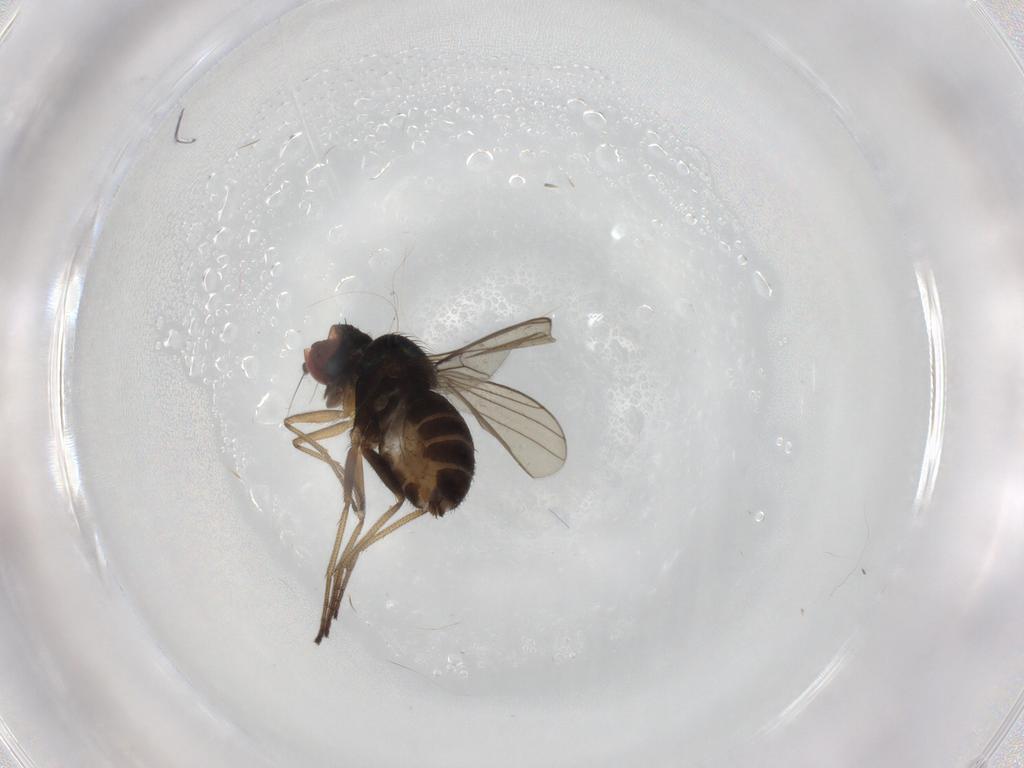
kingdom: Animalia
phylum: Arthropoda
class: Insecta
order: Diptera
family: Dolichopodidae
